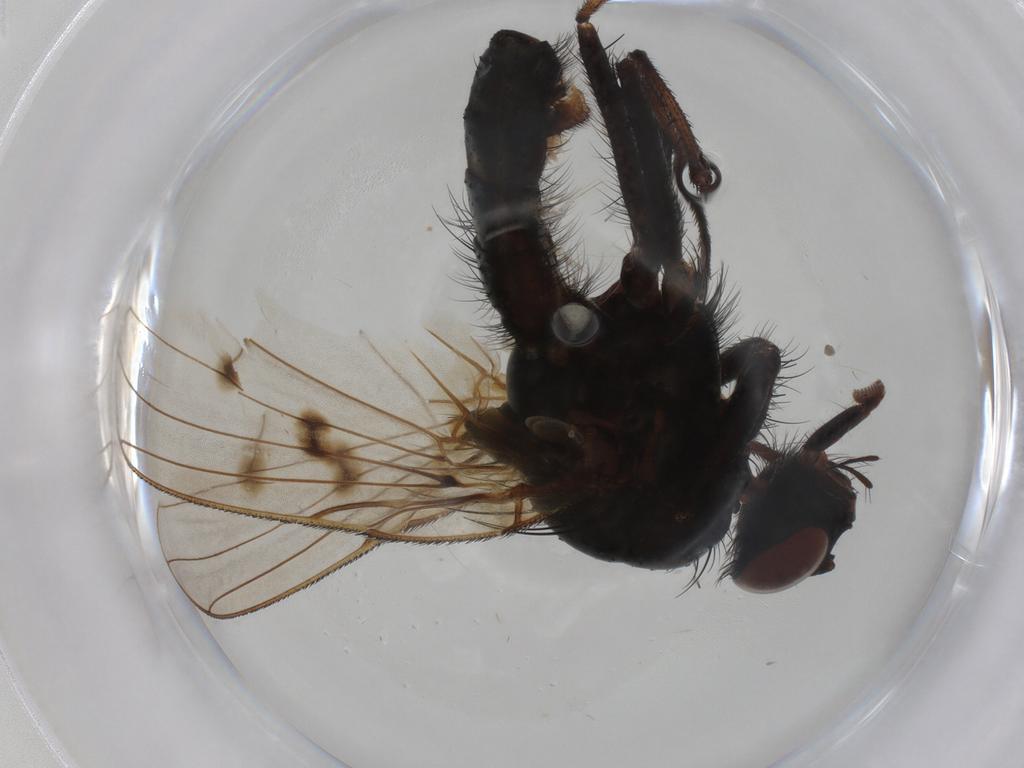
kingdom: Animalia
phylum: Arthropoda
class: Insecta
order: Diptera
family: Anthomyiidae
